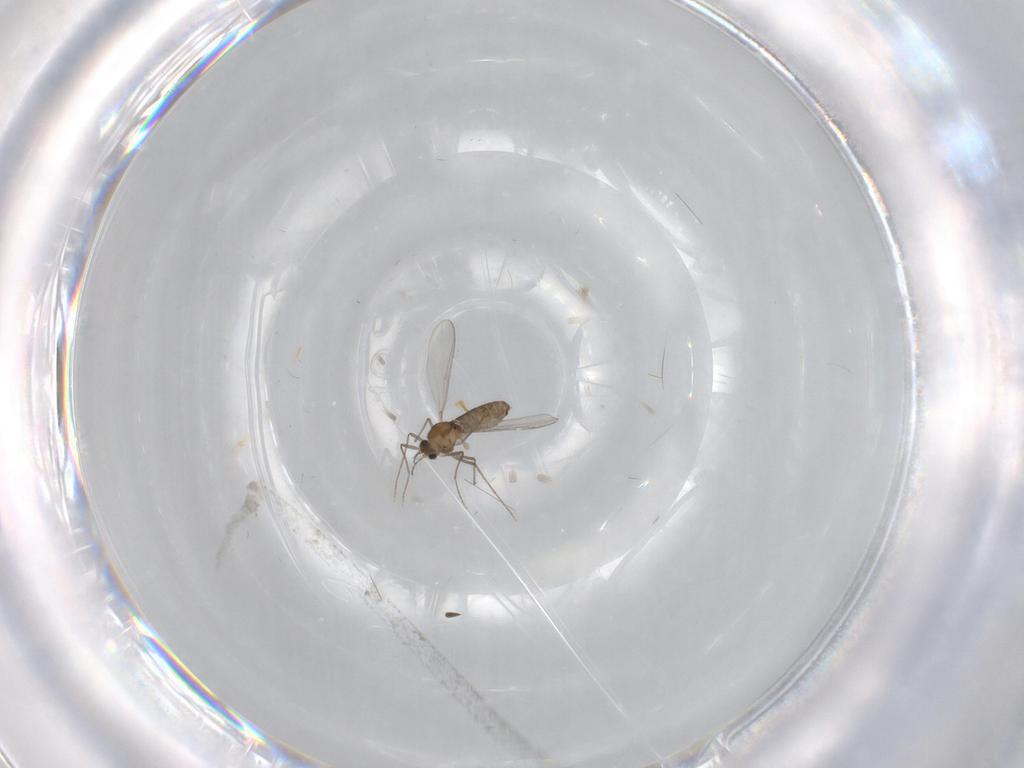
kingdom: Animalia
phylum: Arthropoda
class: Insecta
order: Diptera
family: Chironomidae
